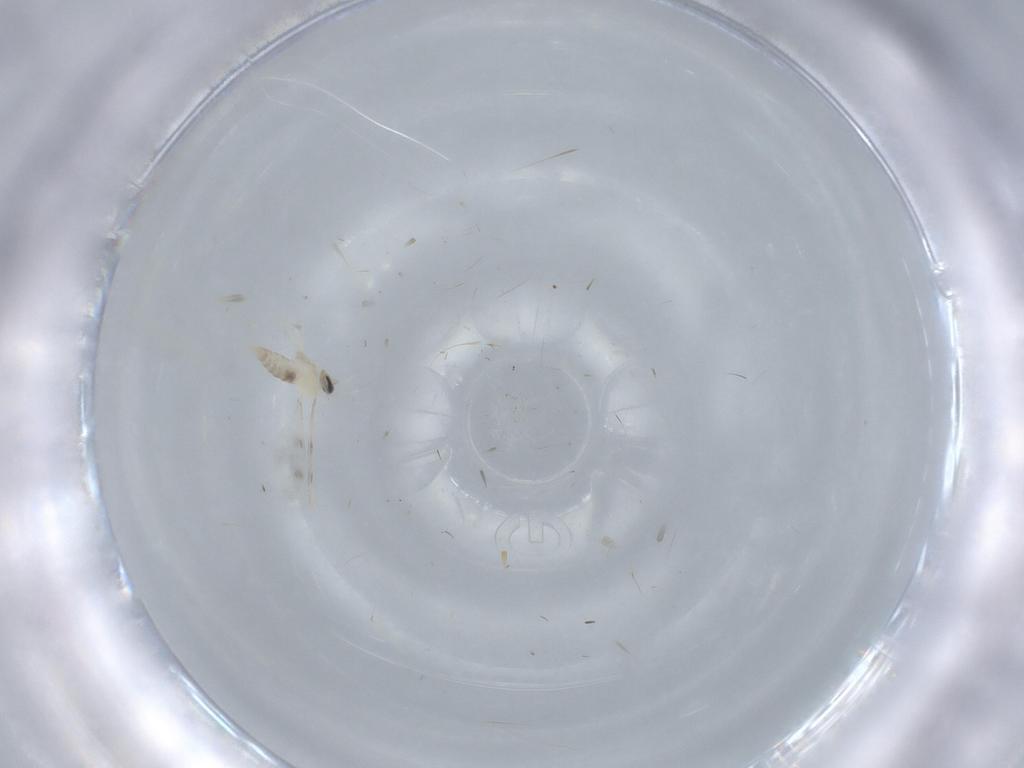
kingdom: Animalia
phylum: Arthropoda
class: Insecta
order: Diptera
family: Cecidomyiidae
